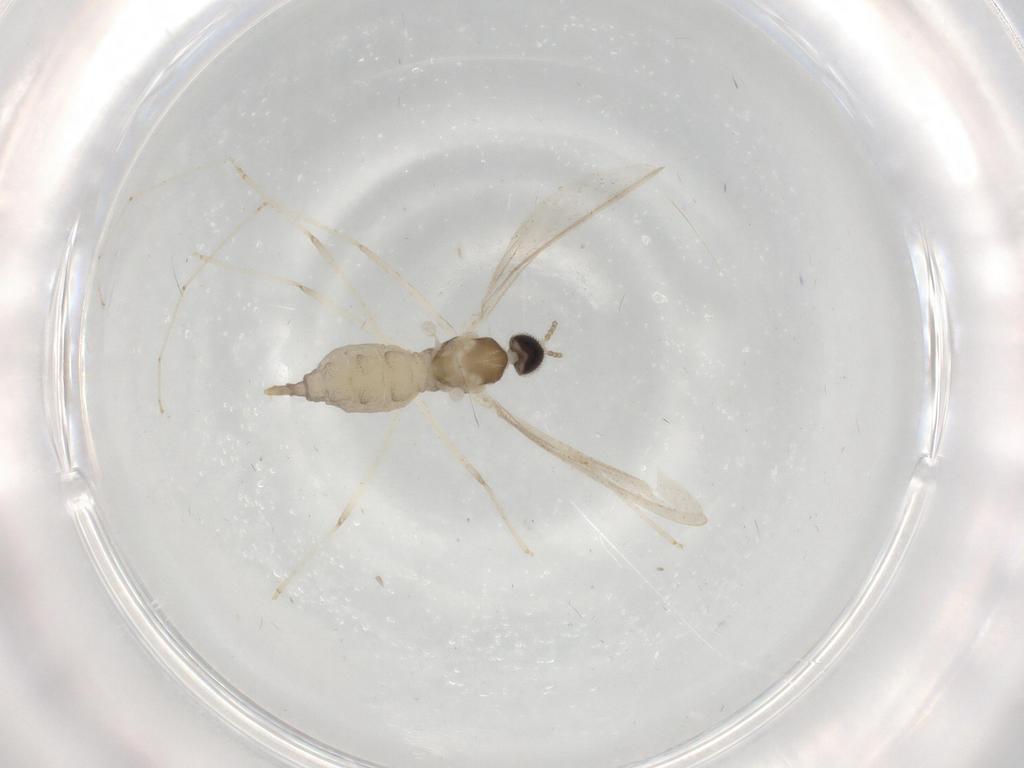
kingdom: Animalia
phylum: Arthropoda
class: Insecta
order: Diptera
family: Cecidomyiidae
